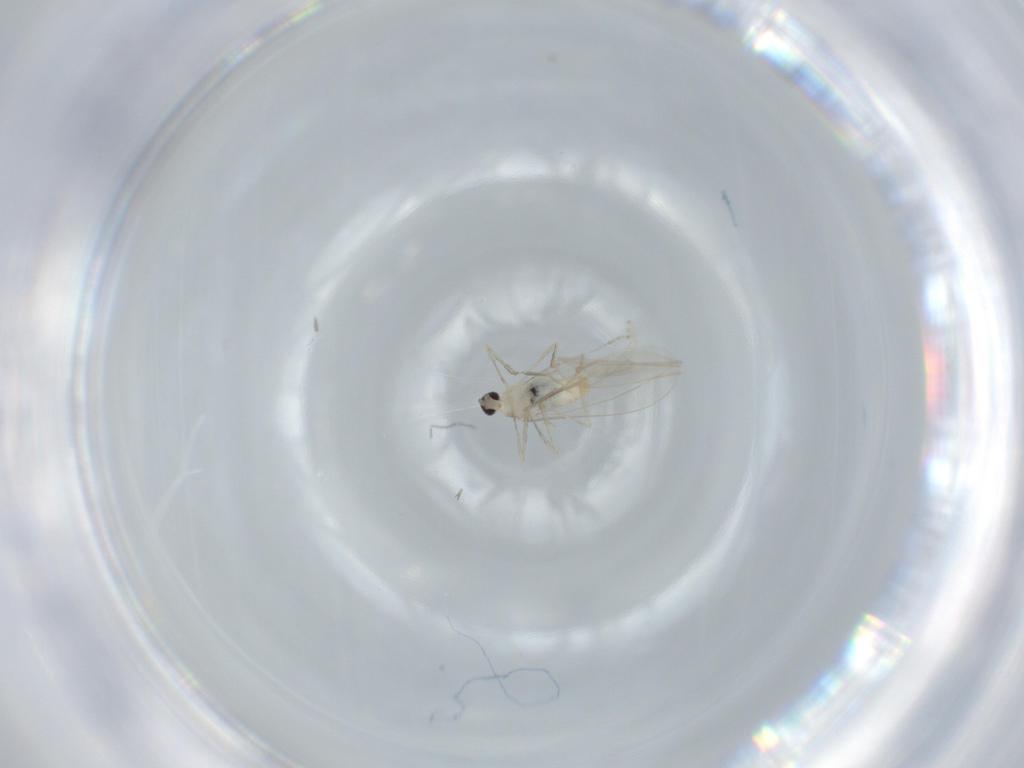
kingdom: Animalia
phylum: Arthropoda
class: Insecta
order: Diptera
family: Cecidomyiidae
